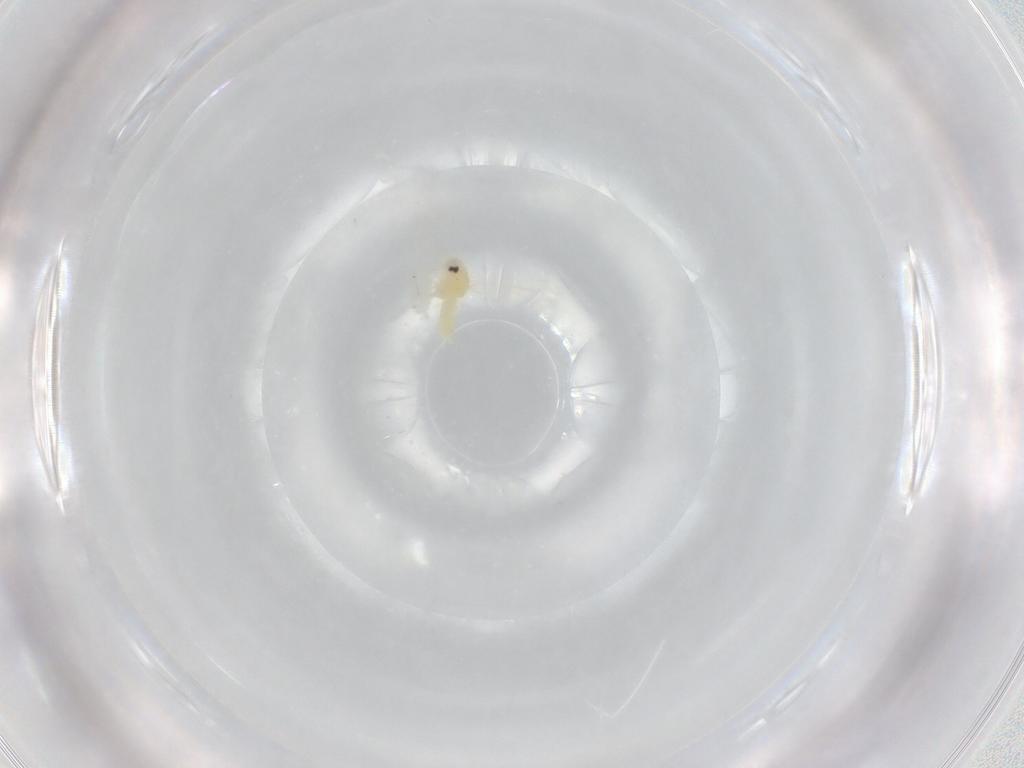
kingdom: Animalia
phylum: Arthropoda
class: Insecta
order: Hemiptera
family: Aleyrodidae
